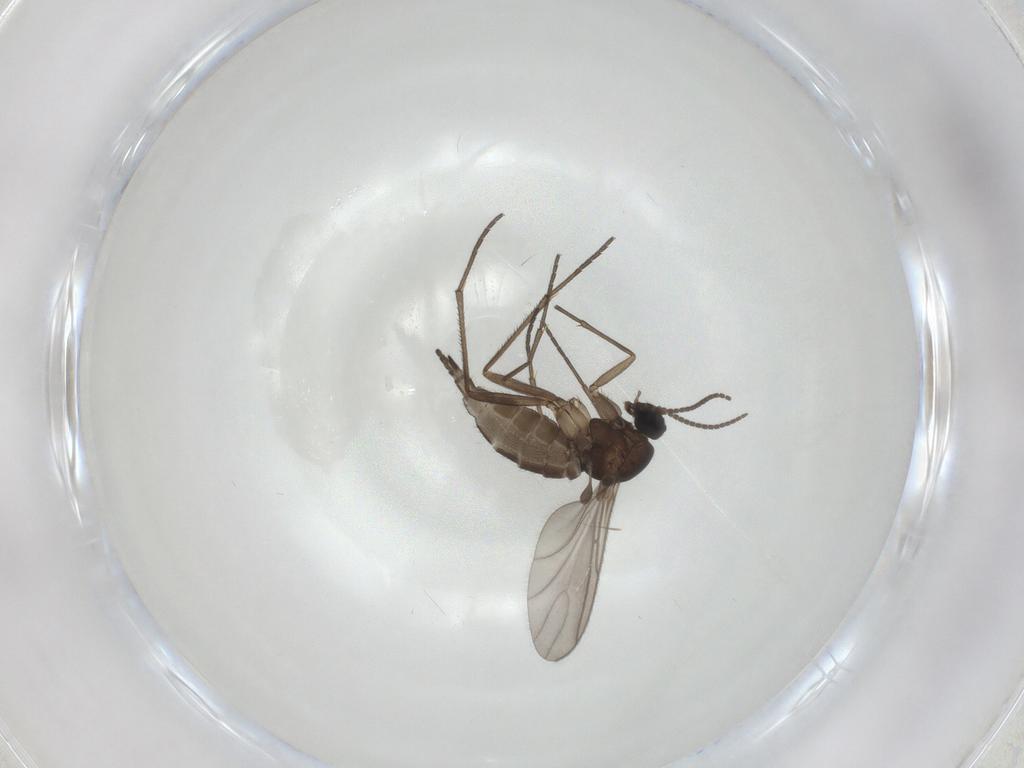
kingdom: Animalia
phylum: Arthropoda
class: Insecta
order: Diptera
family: Sciaridae
